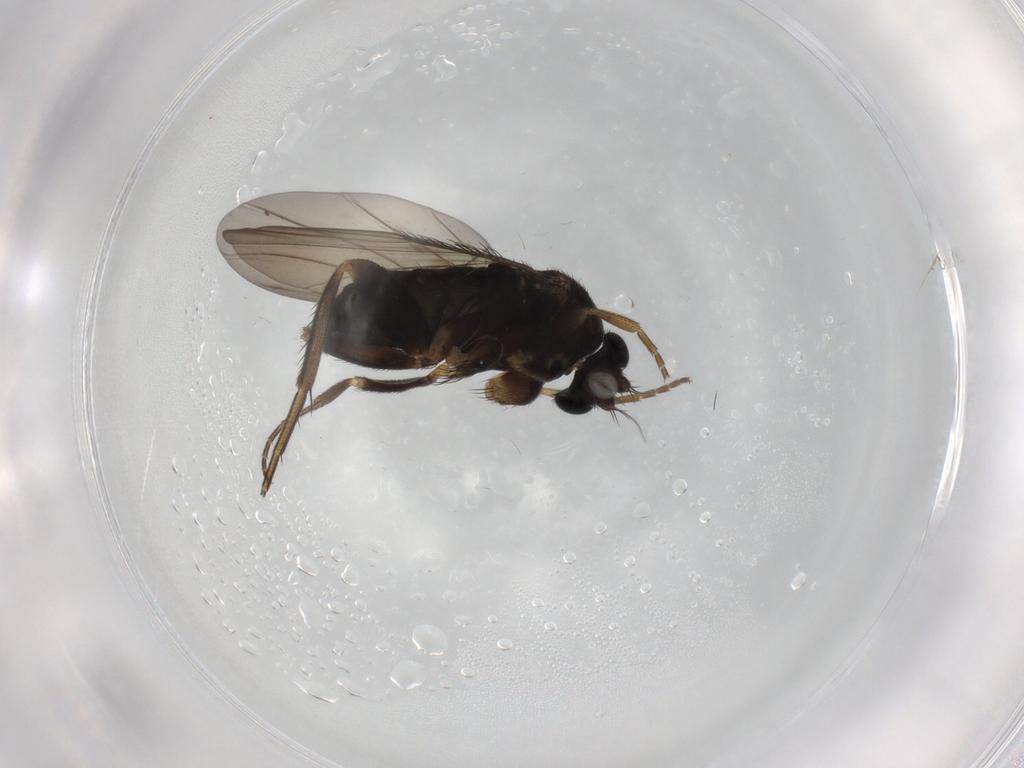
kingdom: Animalia
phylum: Arthropoda
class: Insecta
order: Diptera
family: Phoridae
